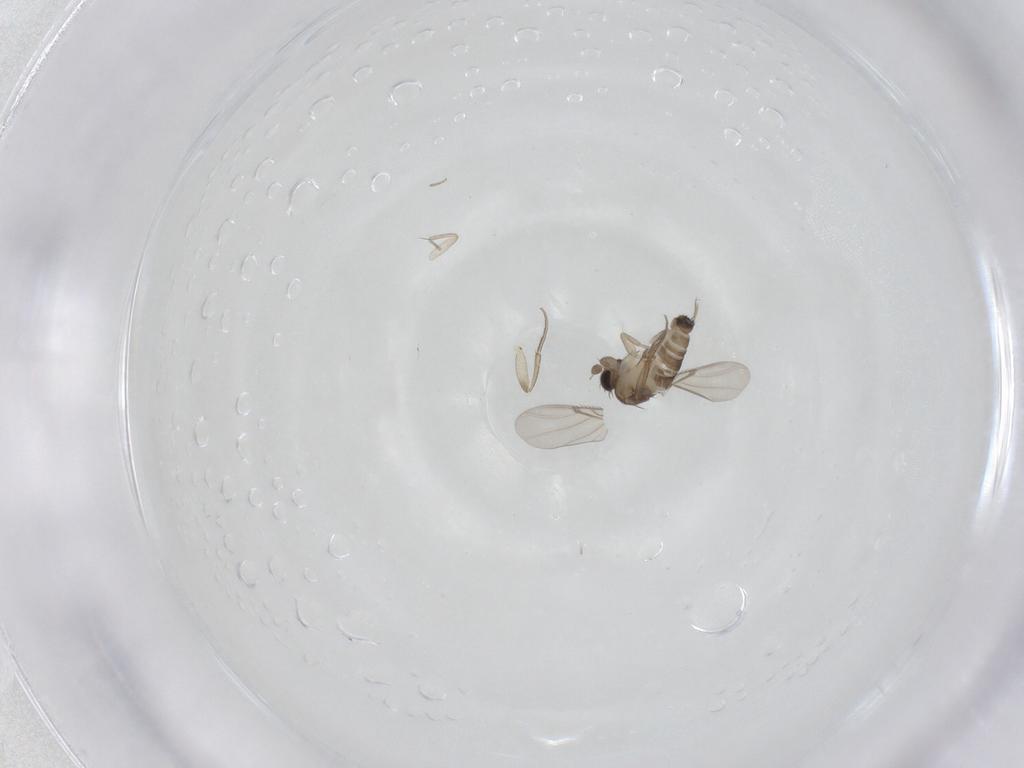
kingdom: Animalia
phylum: Arthropoda
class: Insecta
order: Diptera
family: Phoridae
